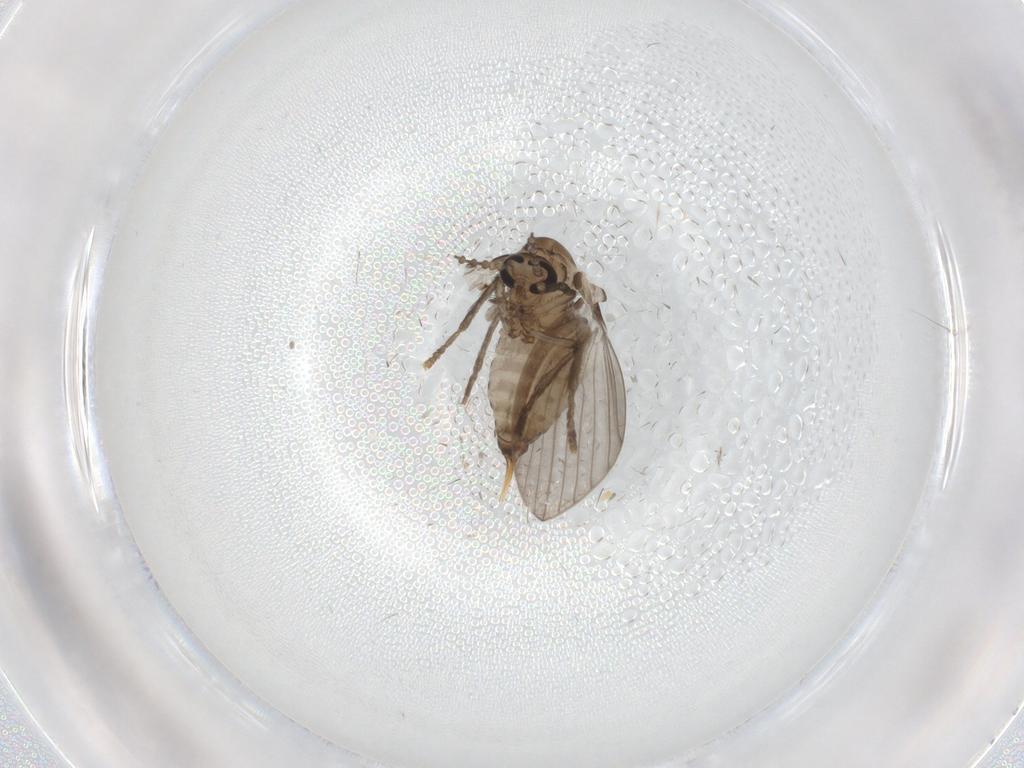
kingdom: Animalia
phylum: Arthropoda
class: Insecta
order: Diptera
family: Psychodidae
